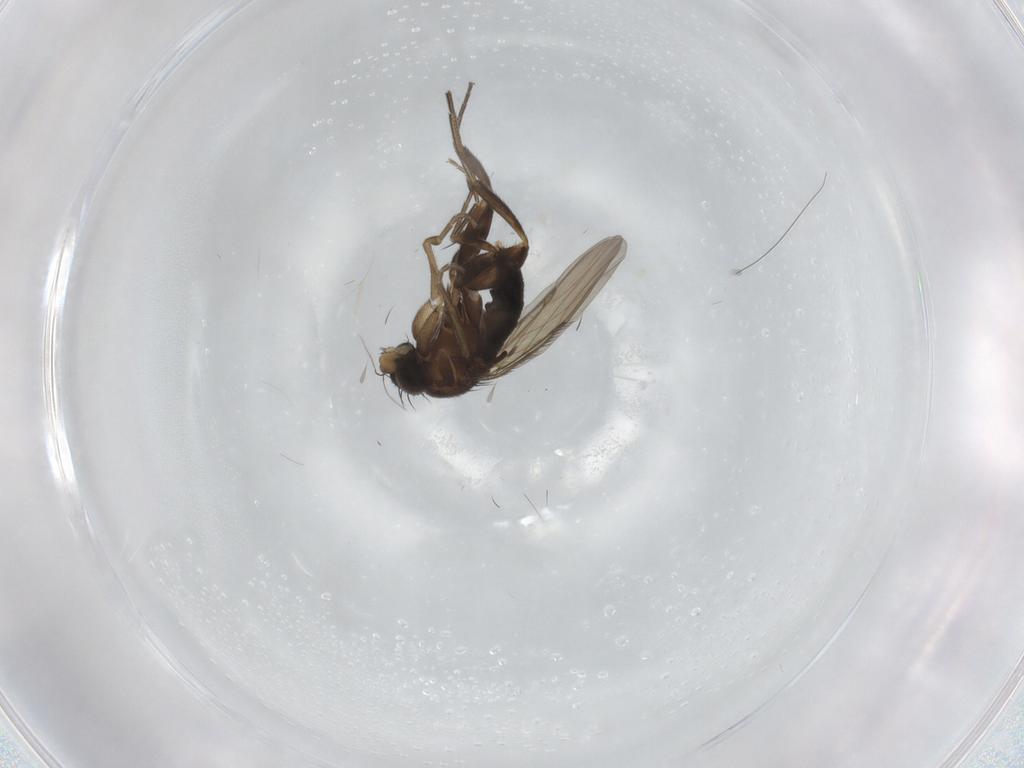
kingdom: Animalia
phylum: Arthropoda
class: Insecta
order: Diptera
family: Phoridae
